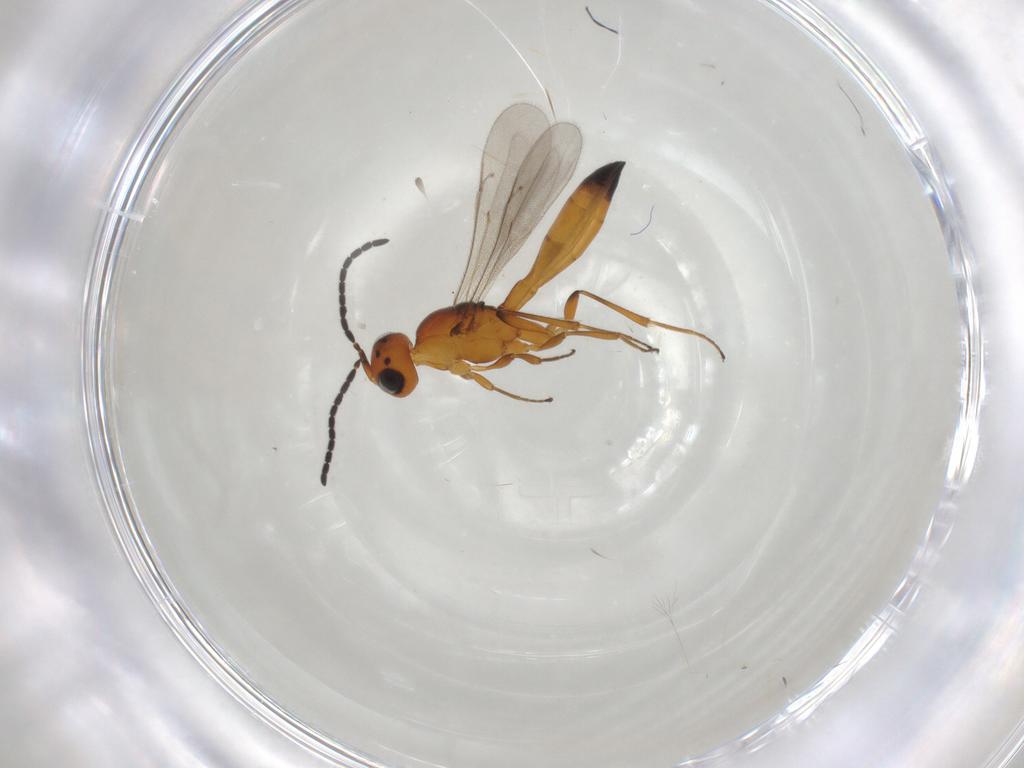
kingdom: Animalia
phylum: Arthropoda
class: Insecta
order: Hymenoptera
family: Scelionidae
